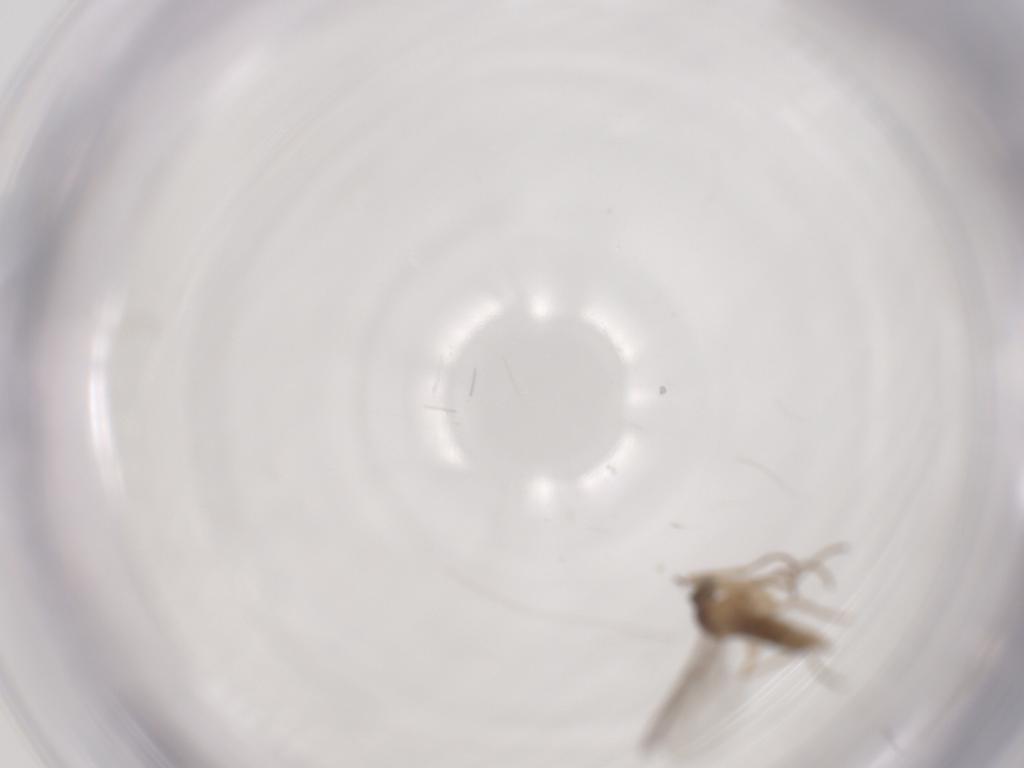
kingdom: Animalia
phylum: Arthropoda
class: Insecta
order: Diptera
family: Cecidomyiidae
